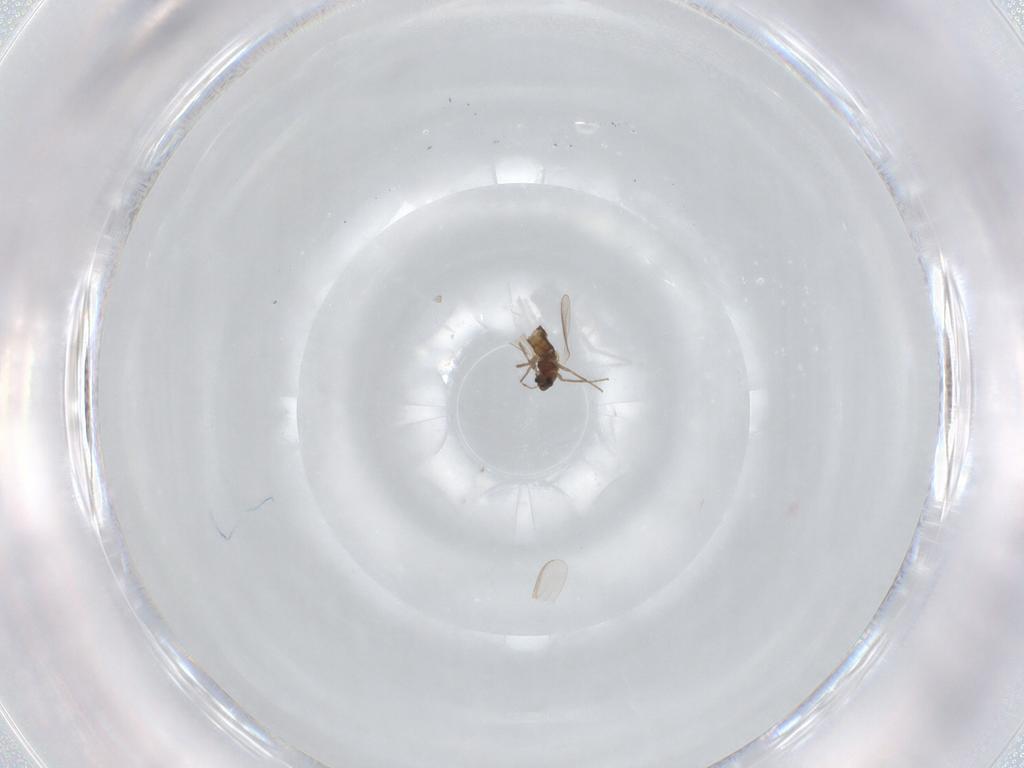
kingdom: Animalia
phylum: Arthropoda
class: Insecta
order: Diptera
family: Chironomidae
